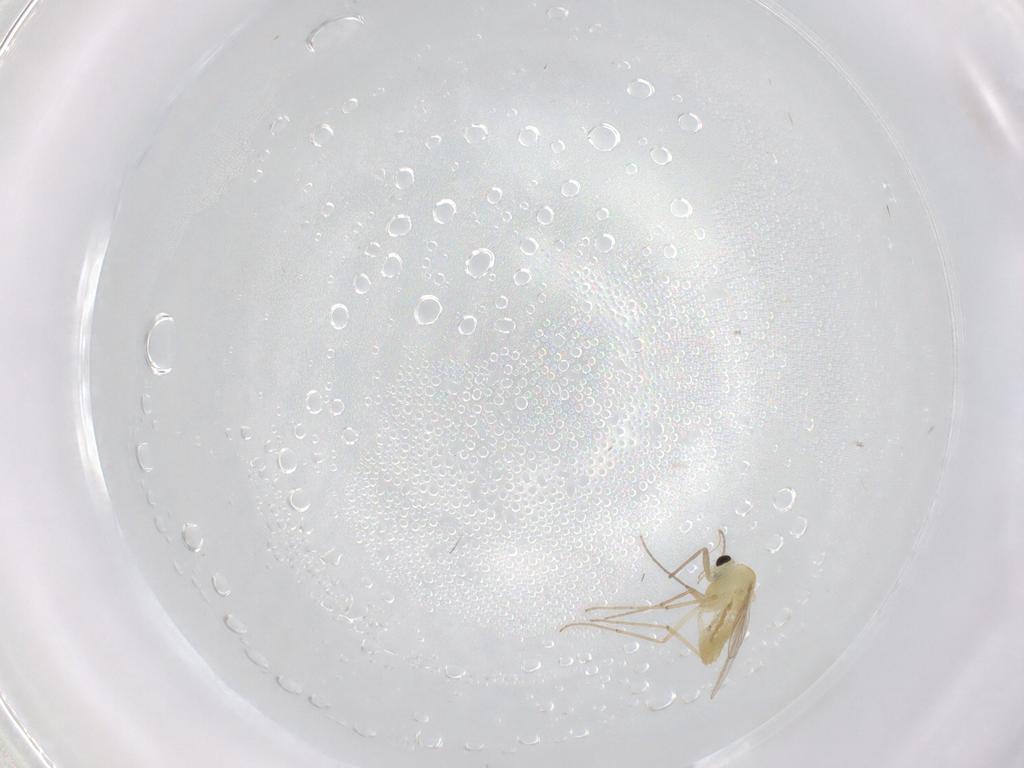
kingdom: Animalia
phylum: Arthropoda
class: Insecta
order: Diptera
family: Chironomidae
